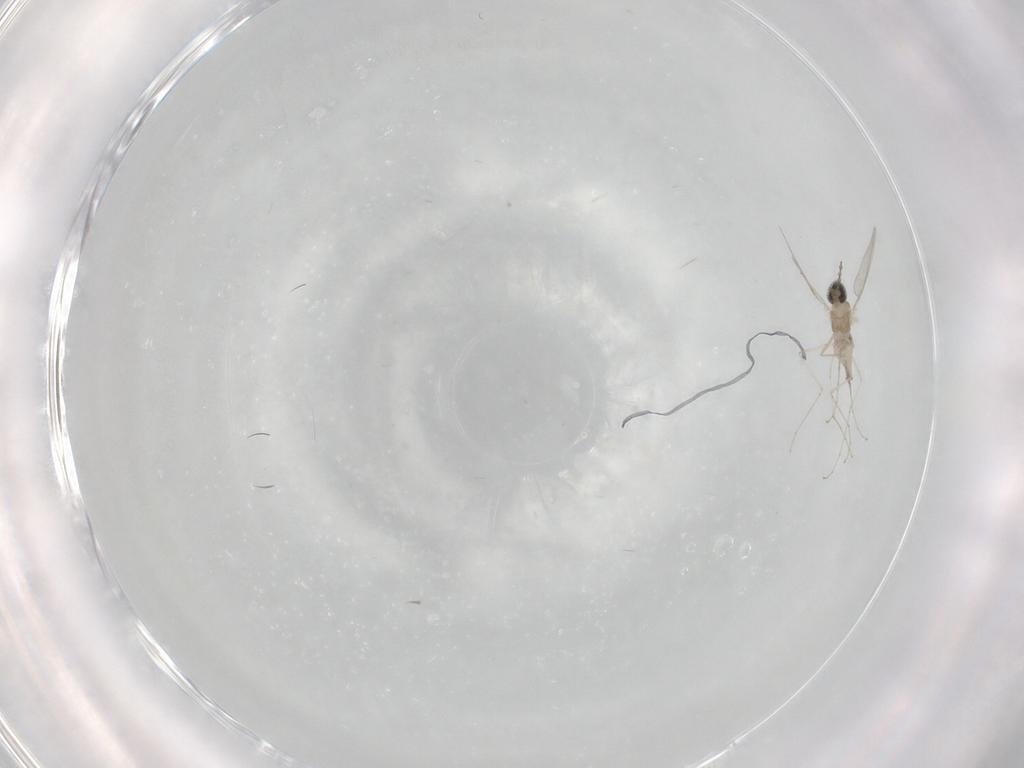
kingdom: Animalia
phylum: Arthropoda
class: Insecta
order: Diptera
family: Cecidomyiidae
